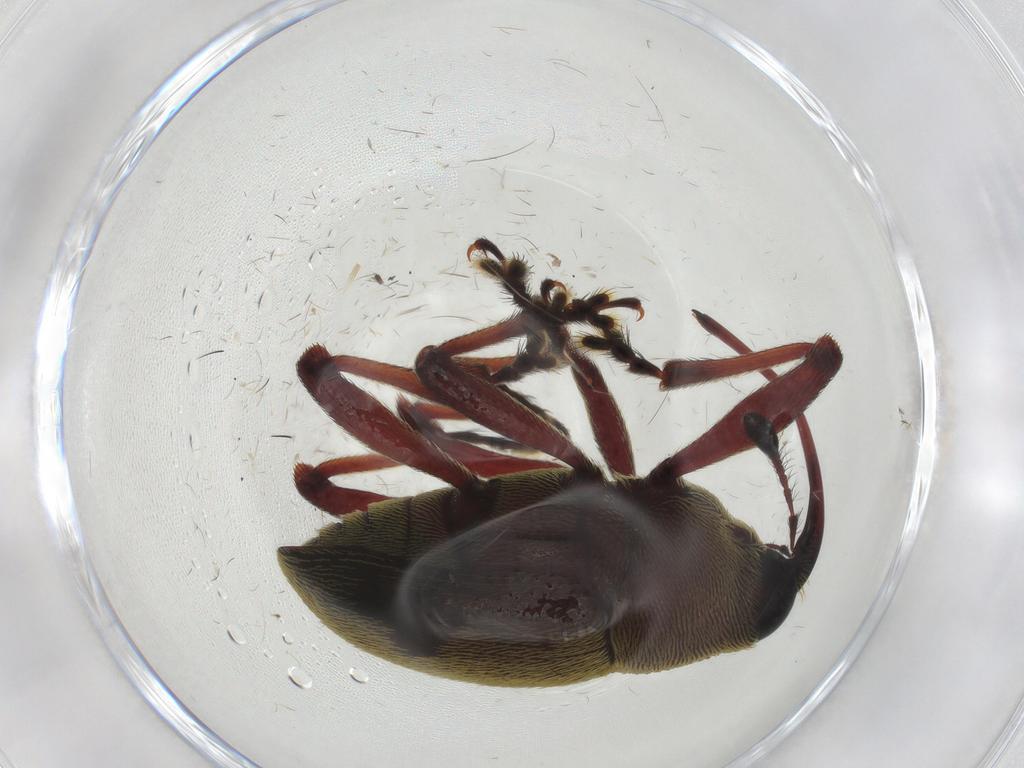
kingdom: Animalia
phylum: Arthropoda
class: Insecta
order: Coleoptera
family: Curculionidae
